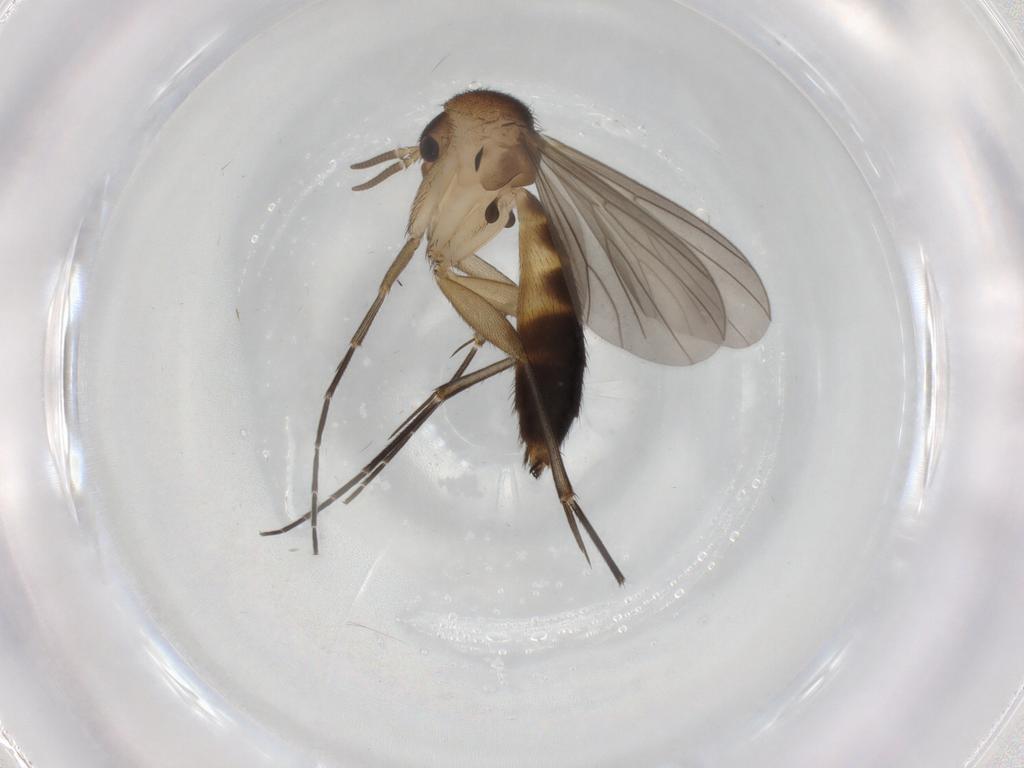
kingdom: Animalia
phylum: Arthropoda
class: Insecta
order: Diptera
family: Mycetophilidae
